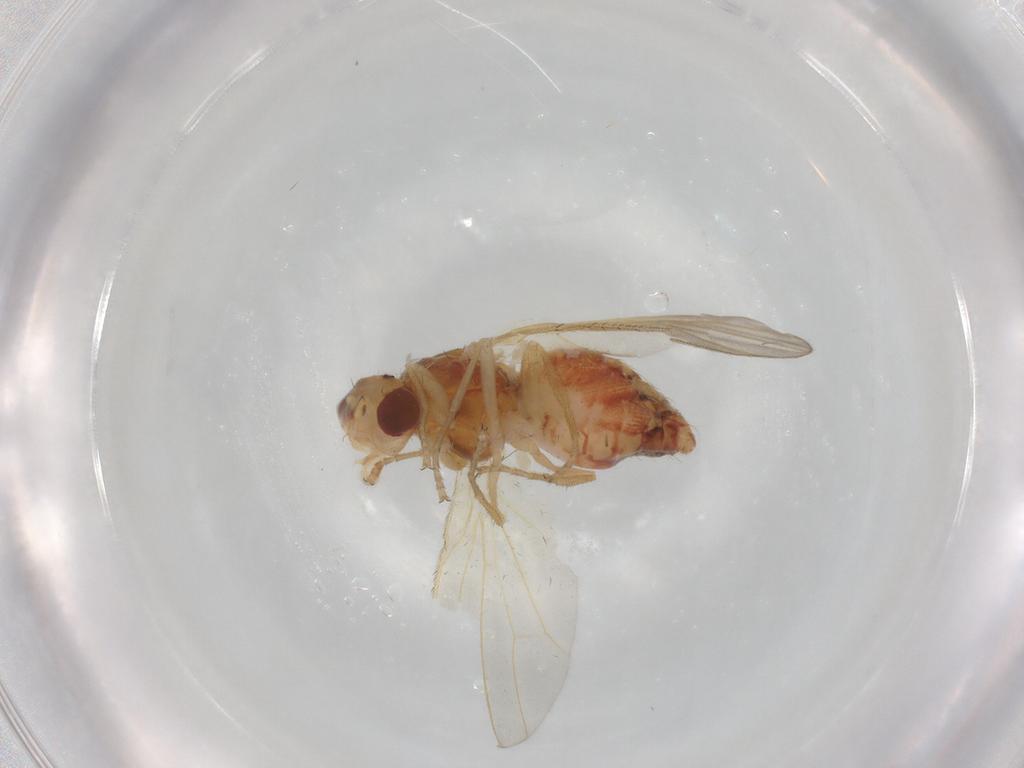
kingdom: Animalia
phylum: Arthropoda
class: Insecta
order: Diptera
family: Heleomyzidae
